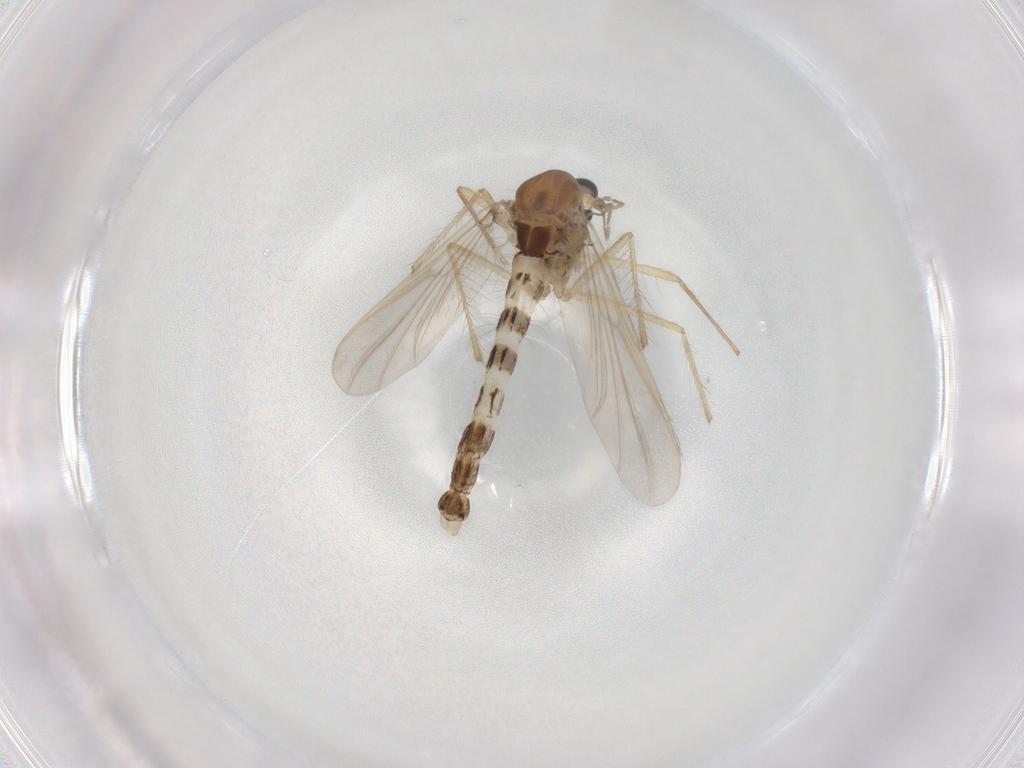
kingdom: Animalia
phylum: Arthropoda
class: Insecta
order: Diptera
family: Chironomidae
